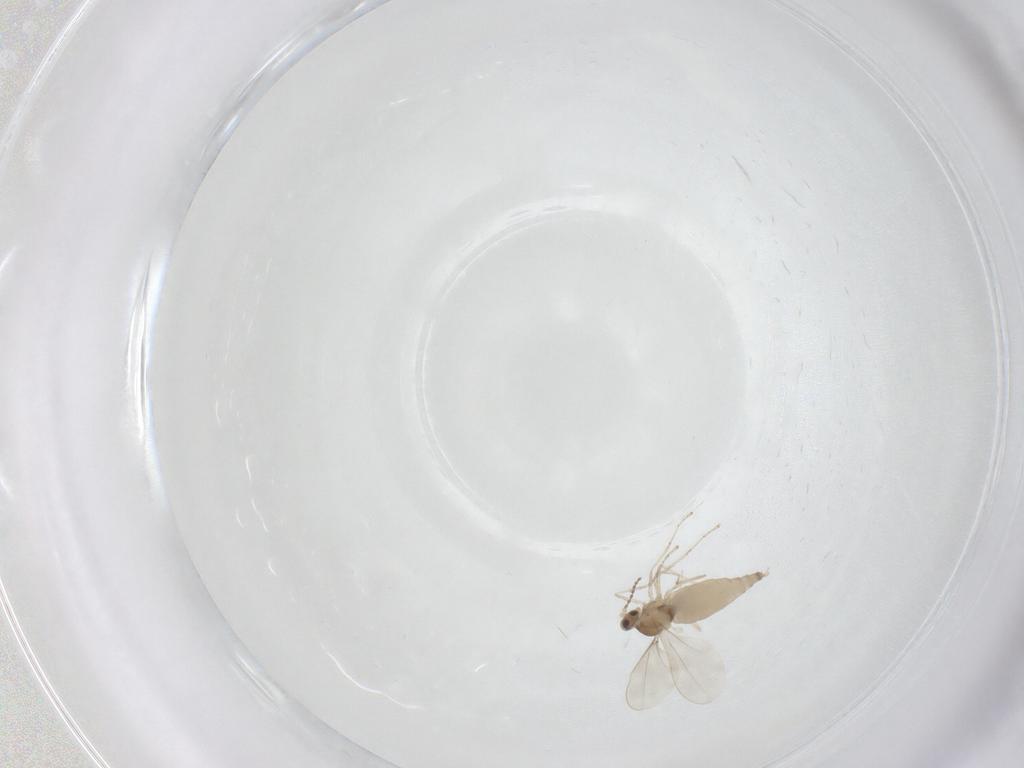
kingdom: Animalia
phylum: Arthropoda
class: Insecta
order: Diptera
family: Cecidomyiidae
